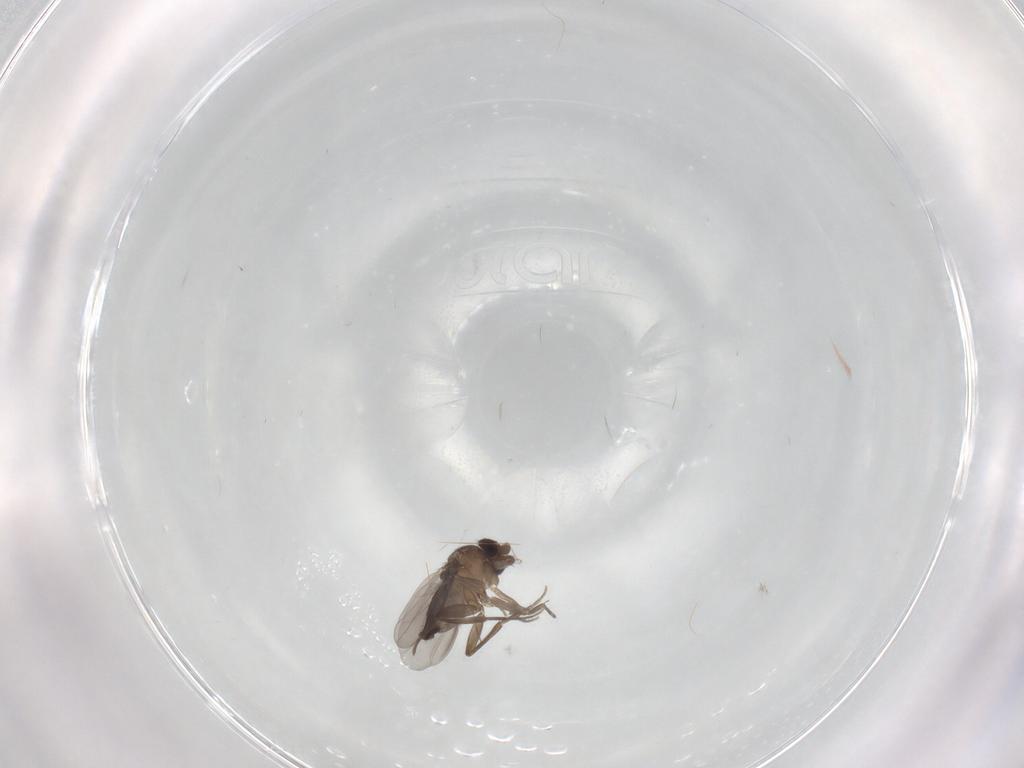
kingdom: Animalia
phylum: Arthropoda
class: Insecta
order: Diptera
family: Phoridae
